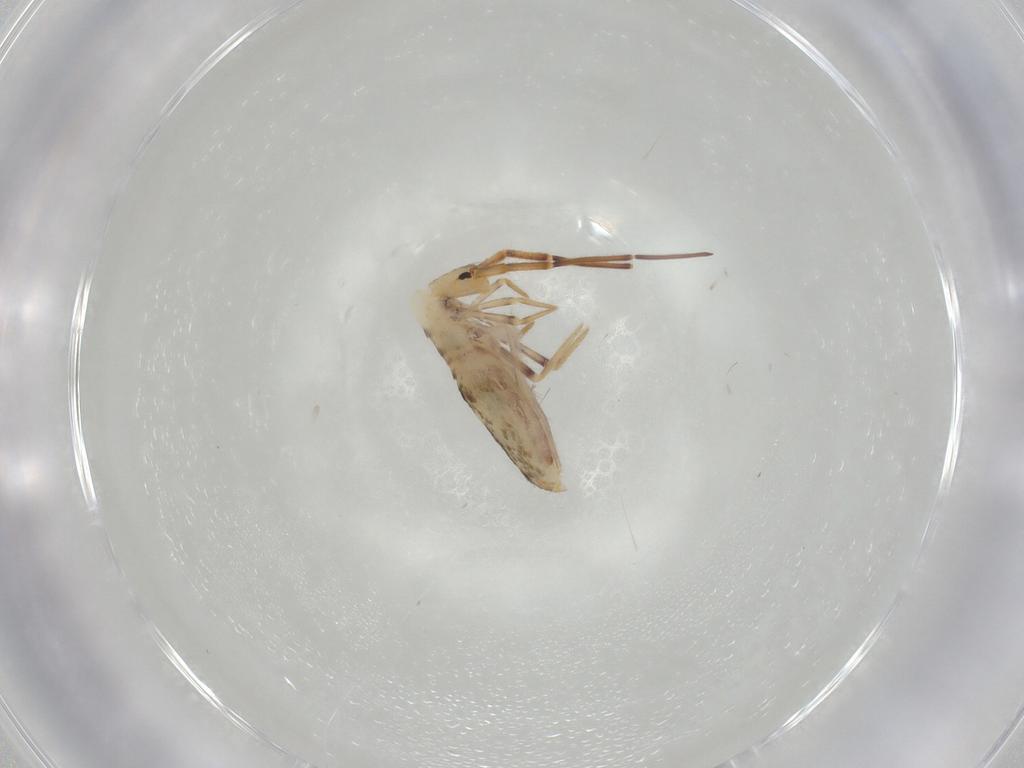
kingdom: Animalia
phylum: Arthropoda
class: Collembola
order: Poduromorpha
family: Hypogastruridae
